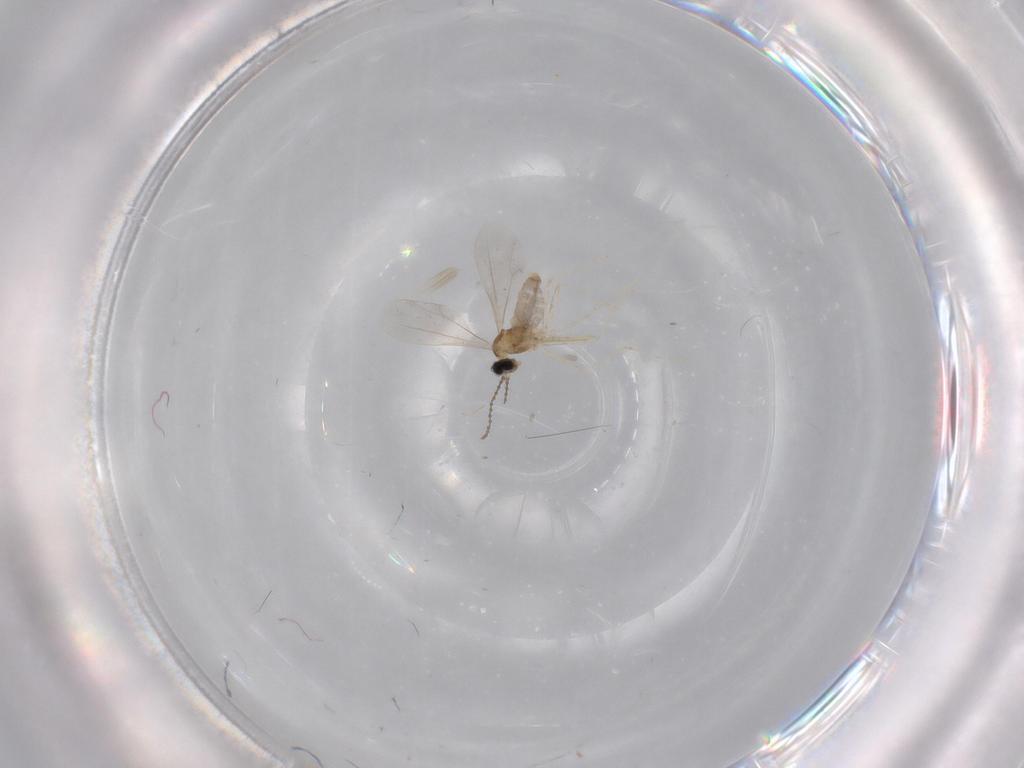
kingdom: Animalia
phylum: Arthropoda
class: Insecta
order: Diptera
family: Cecidomyiidae
